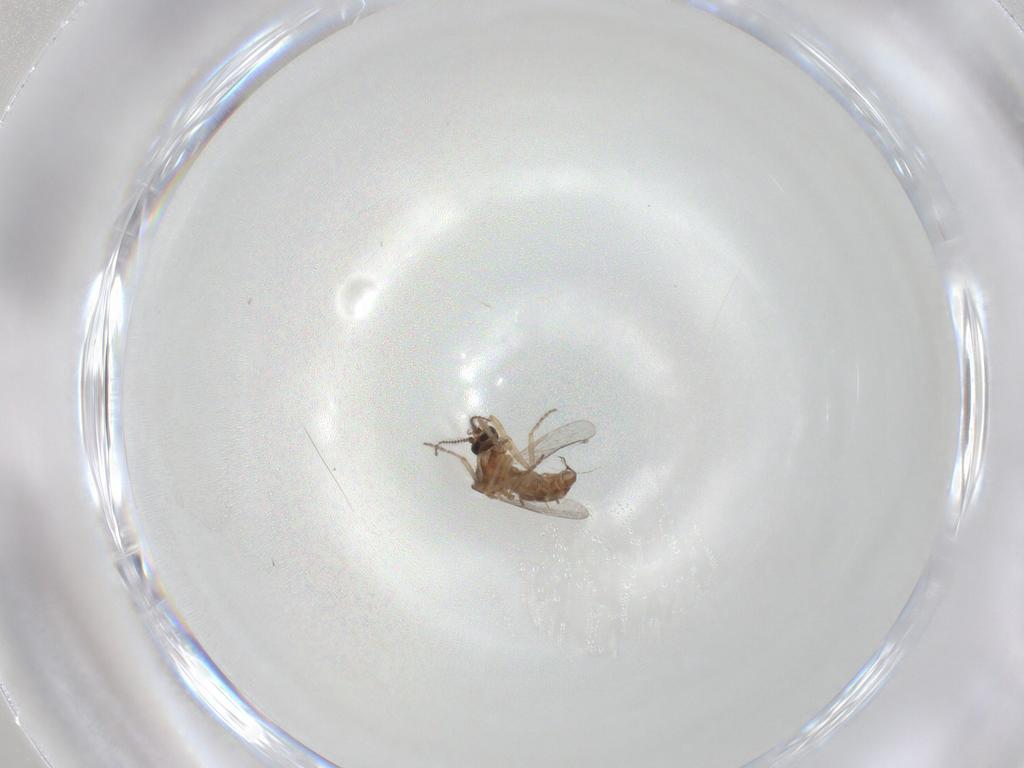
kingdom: Animalia
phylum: Arthropoda
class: Insecta
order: Diptera
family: Ceratopogonidae
